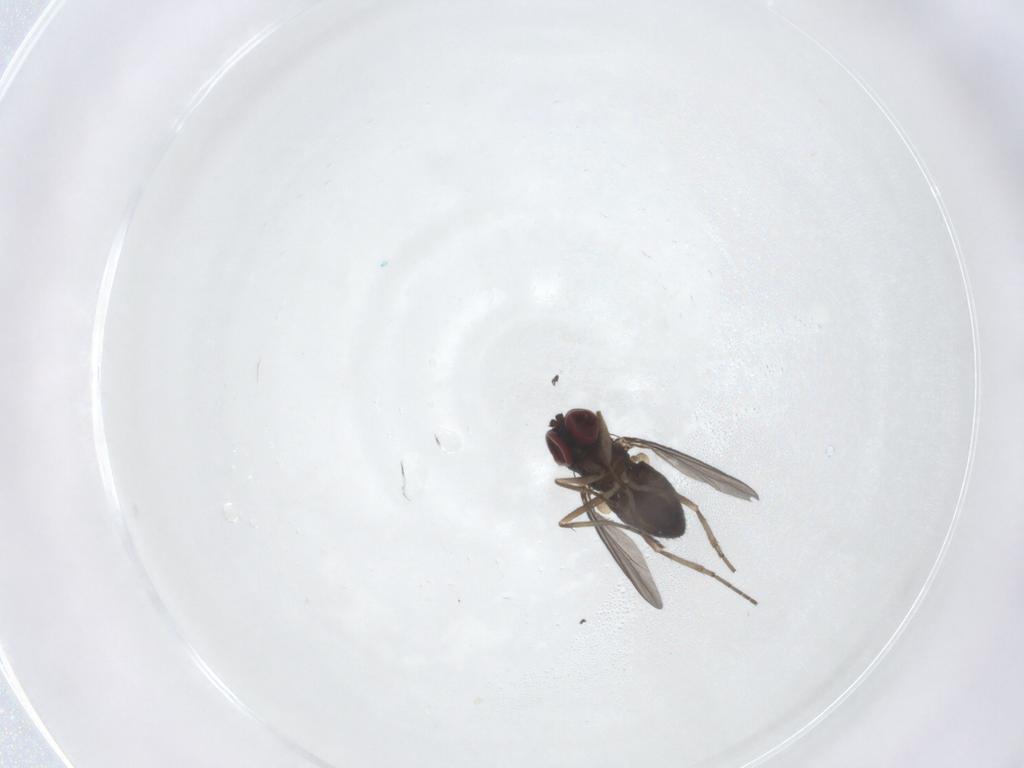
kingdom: Animalia
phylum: Arthropoda
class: Insecta
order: Diptera
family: Dolichopodidae
